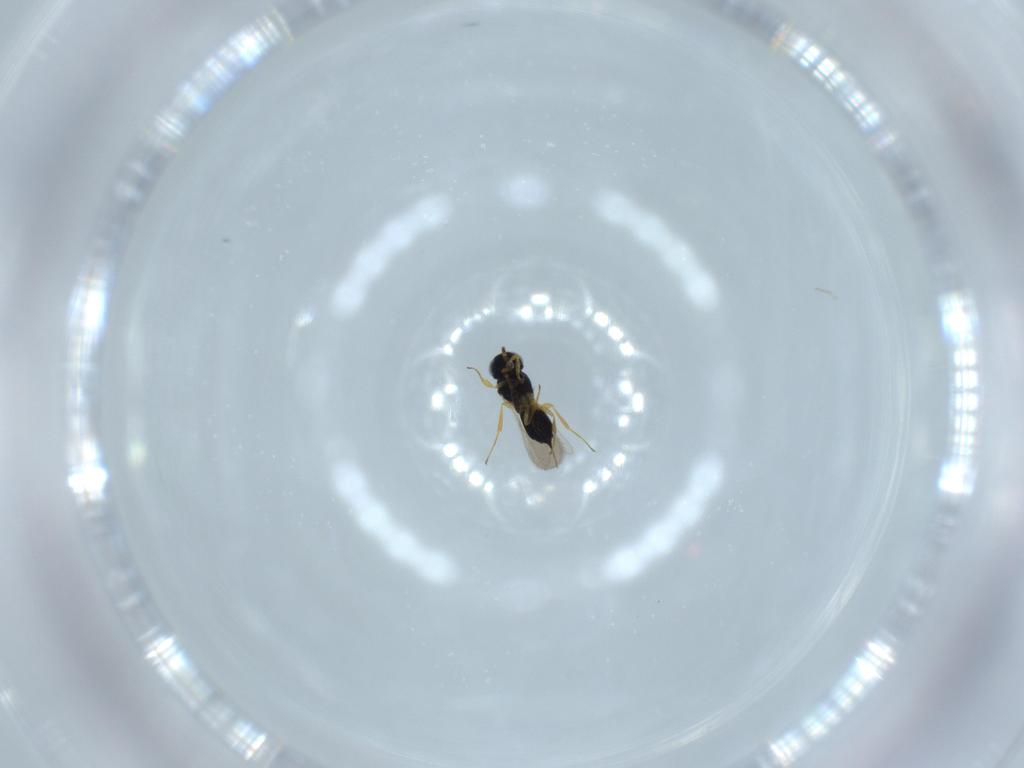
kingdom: Animalia
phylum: Arthropoda
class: Insecta
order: Hymenoptera
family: Scelionidae
